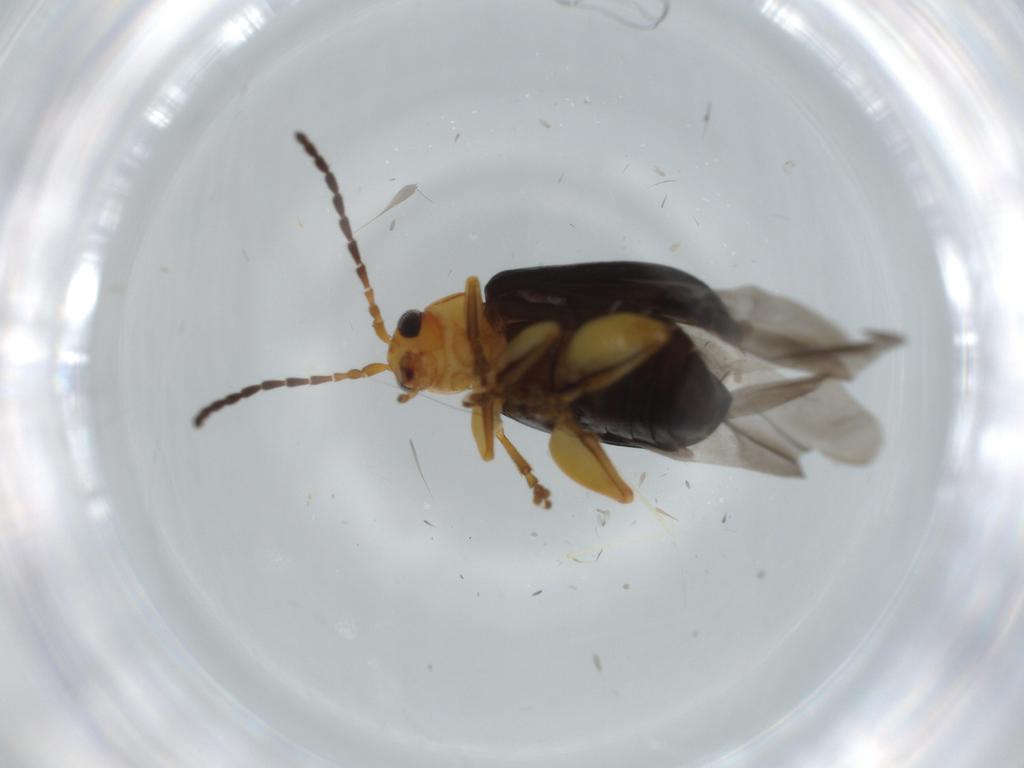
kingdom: Animalia
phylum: Arthropoda
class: Insecta
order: Coleoptera
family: Chrysomelidae
